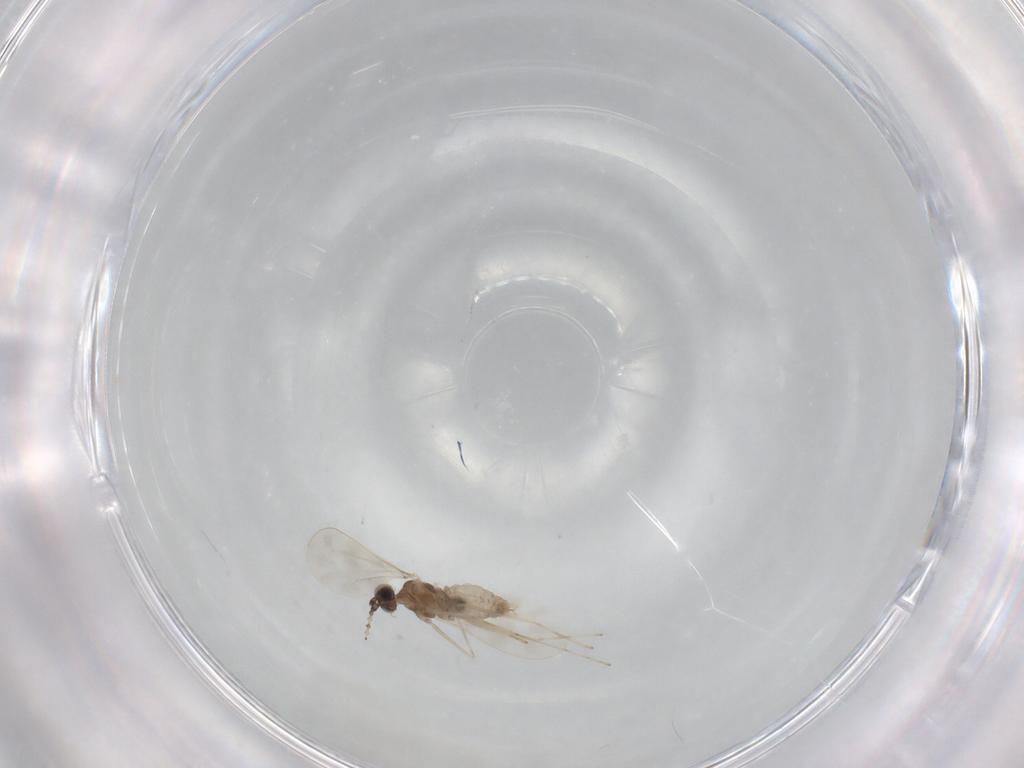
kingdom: Animalia
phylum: Arthropoda
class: Insecta
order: Diptera
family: Cecidomyiidae
